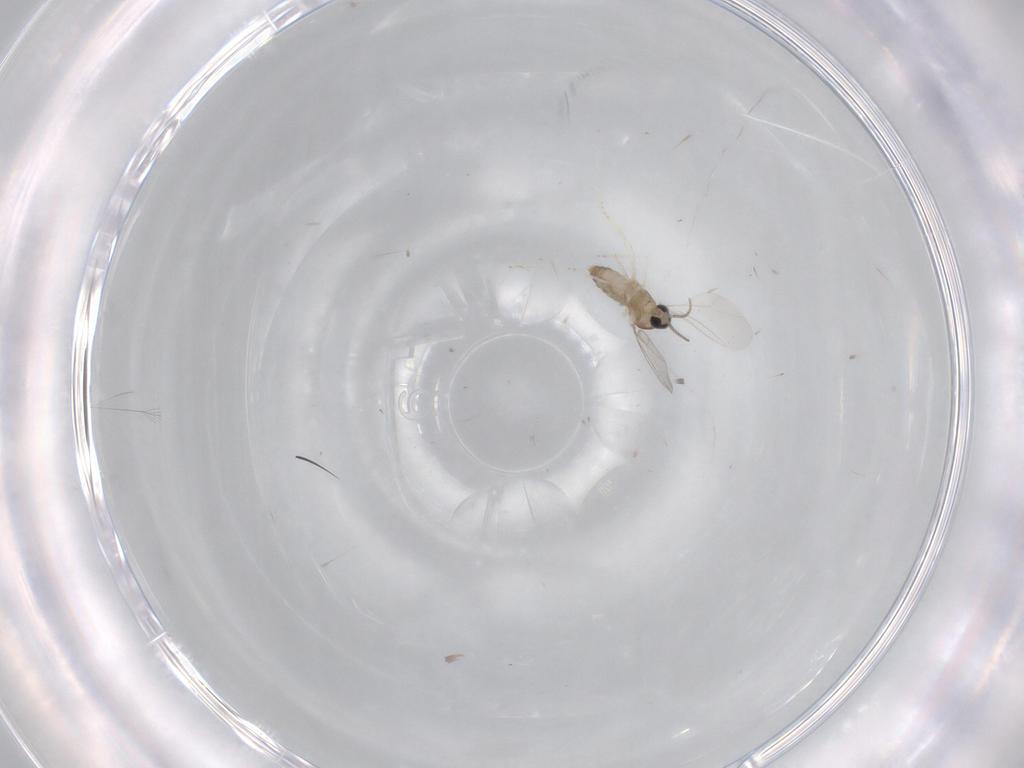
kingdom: Animalia
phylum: Arthropoda
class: Insecta
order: Diptera
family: Cecidomyiidae
